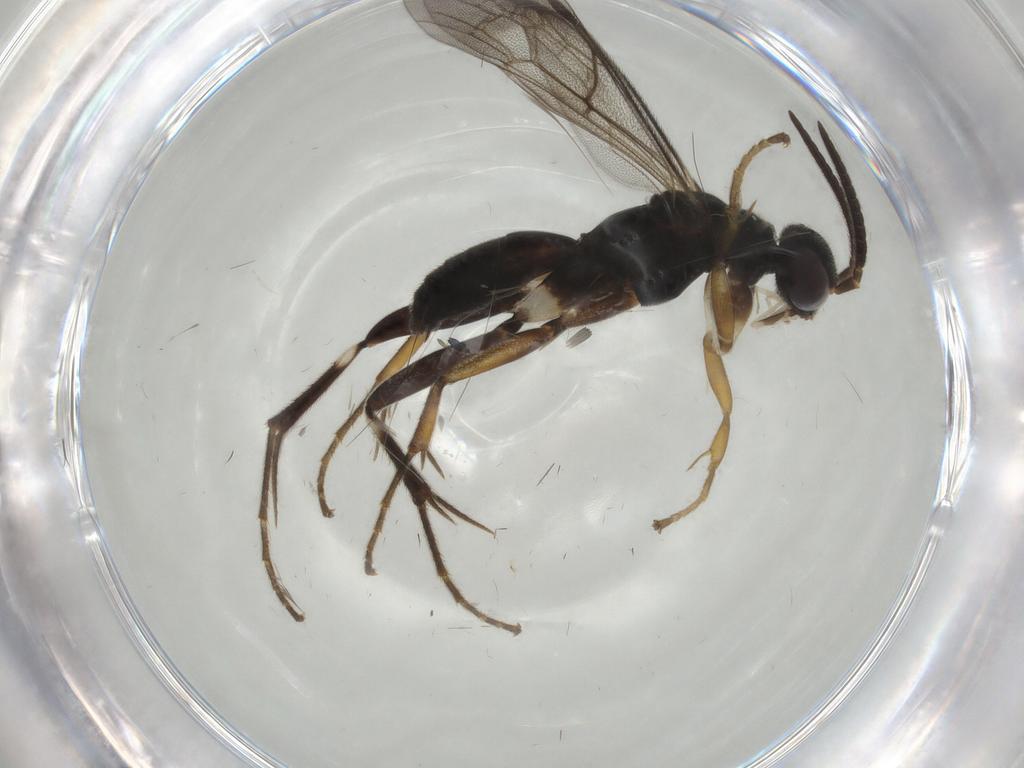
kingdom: Animalia
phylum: Arthropoda
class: Insecta
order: Hymenoptera
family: Pompilidae
